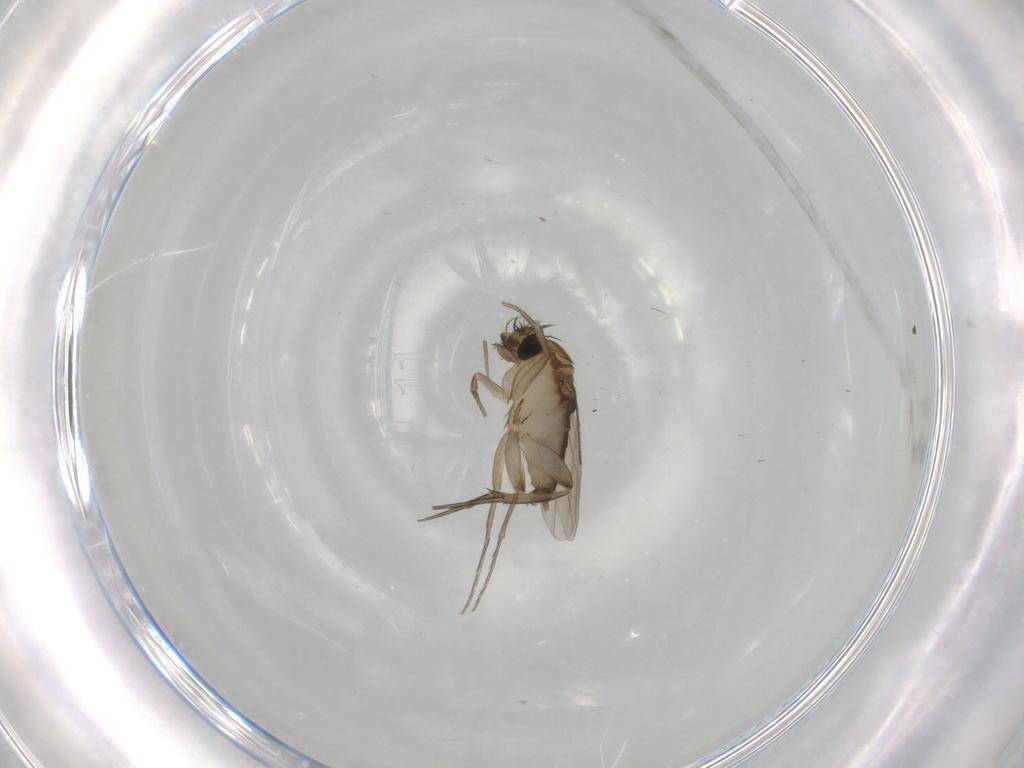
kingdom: Animalia
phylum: Arthropoda
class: Insecta
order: Diptera
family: Phoridae
